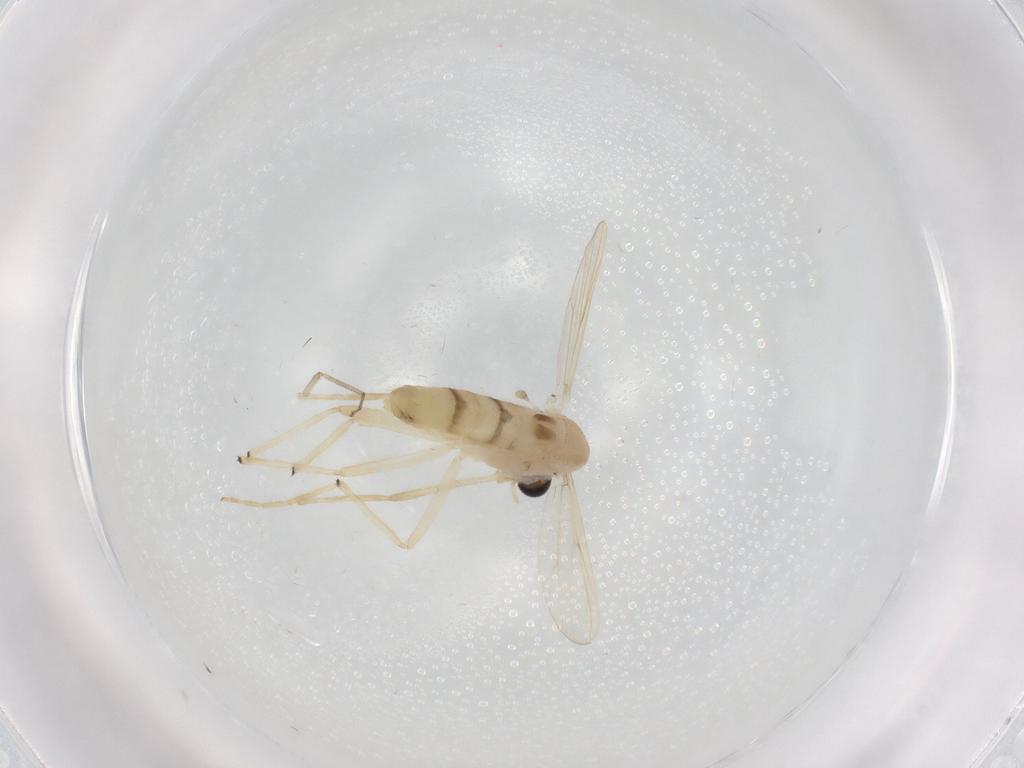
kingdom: Animalia
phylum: Arthropoda
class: Insecta
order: Diptera
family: Chironomidae
